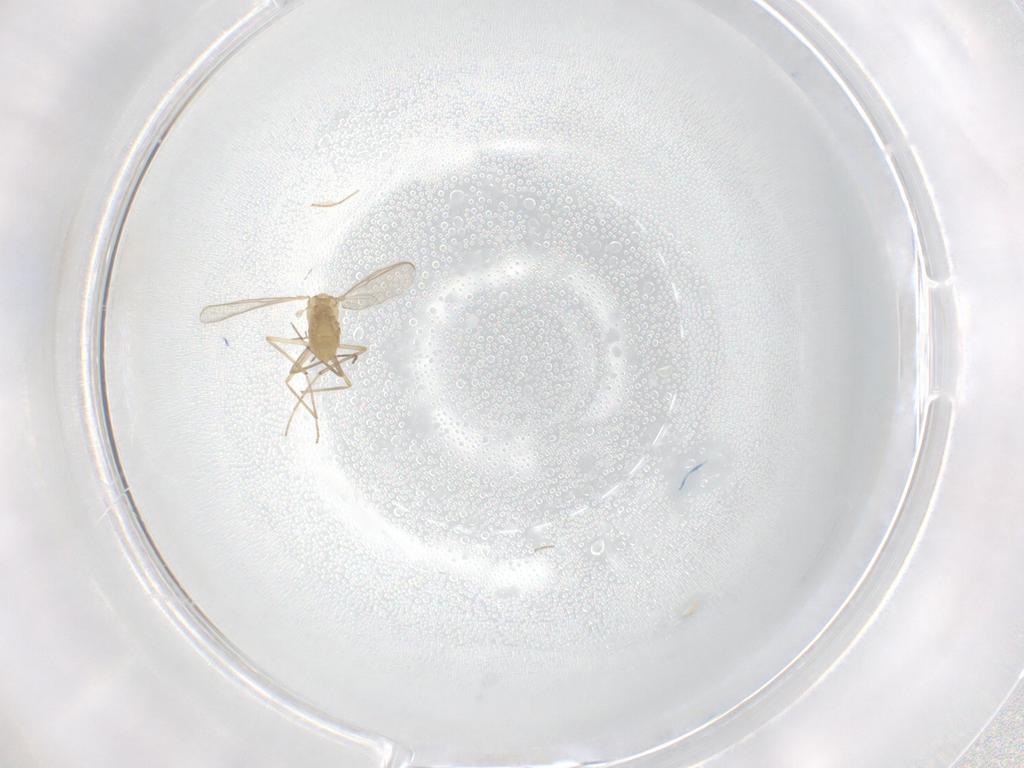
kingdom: Animalia
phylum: Arthropoda
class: Insecta
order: Diptera
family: Chironomidae
